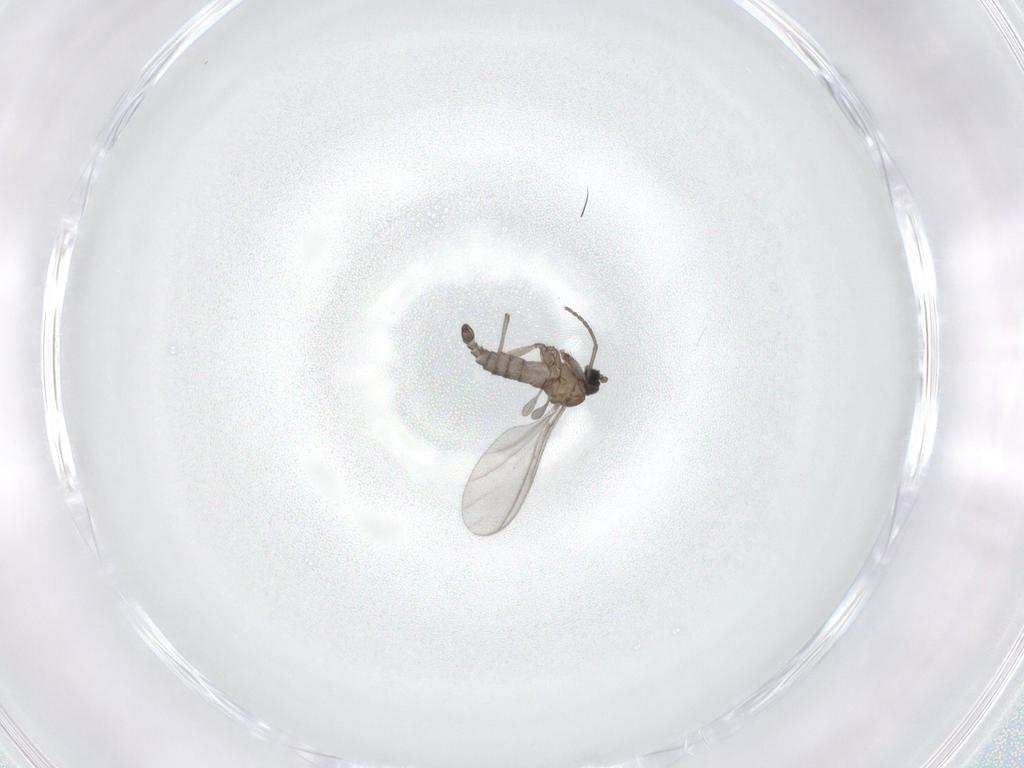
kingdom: Animalia
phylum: Arthropoda
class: Insecta
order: Diptera
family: Sciaridae
